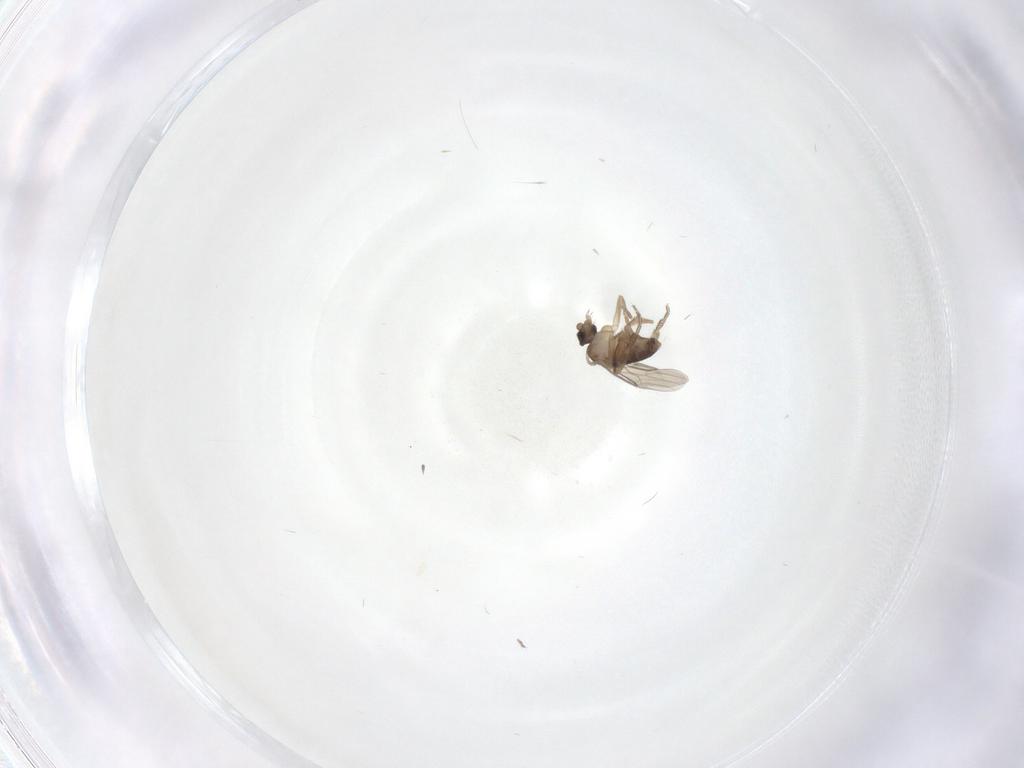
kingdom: Animalia
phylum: Arthropoda
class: Insecta
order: Diptera
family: Phoridae
